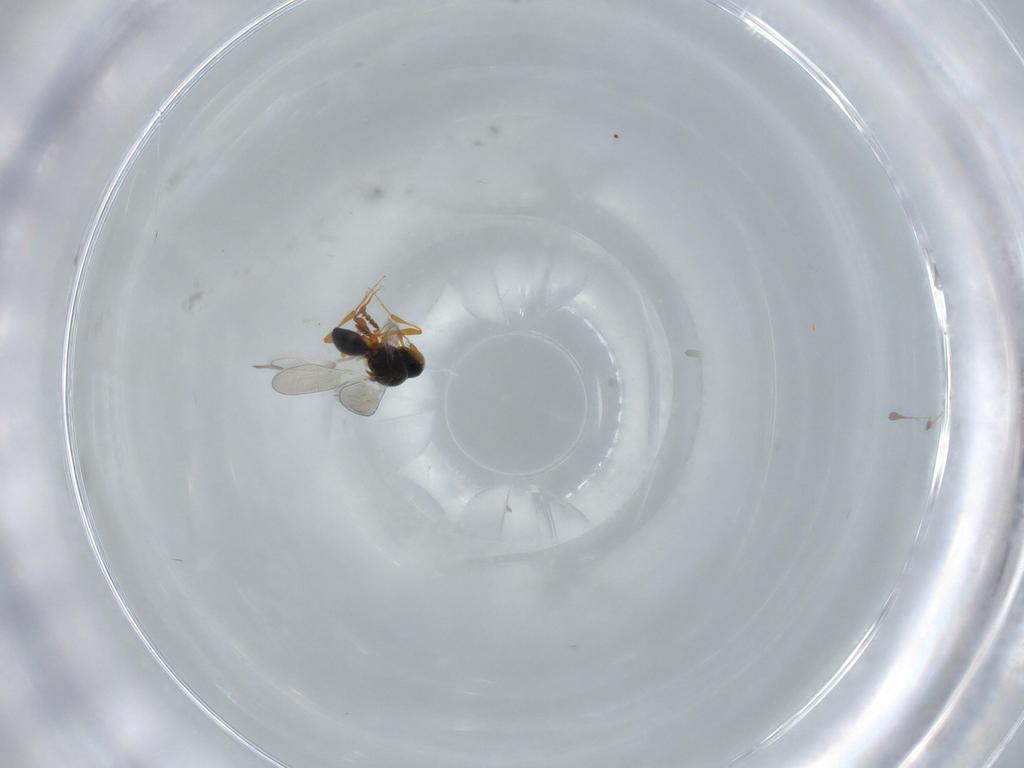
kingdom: Animalia
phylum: Arthropoda
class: Insecta
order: Hymenoptera
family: Platygastridae
